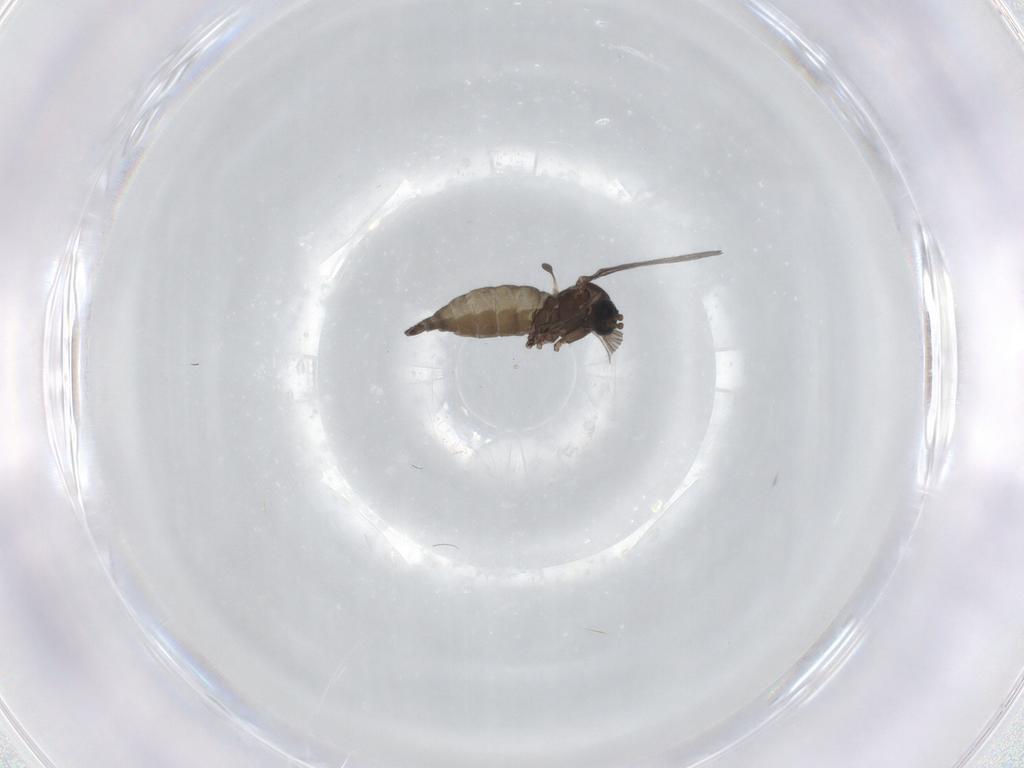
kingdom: Animalia
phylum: Arthropoda
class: Insecta
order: Diptera
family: Sciaridae
